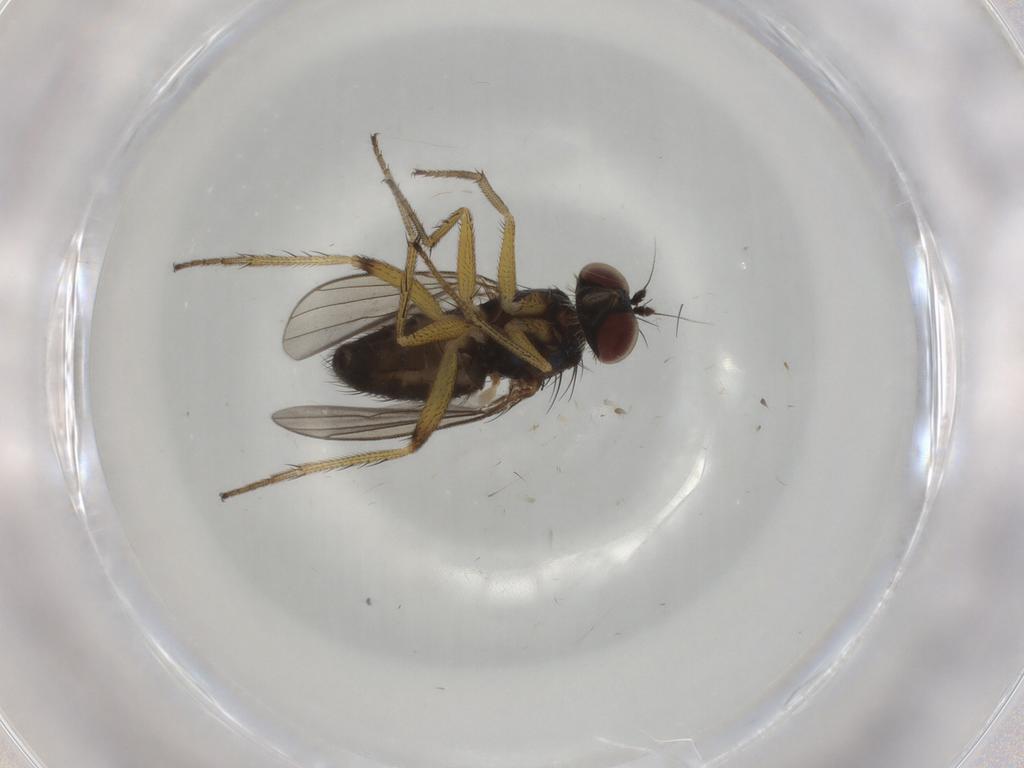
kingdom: Animalia
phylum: Arthropoda
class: Insecta
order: Diptera
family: Dolichopodidae
